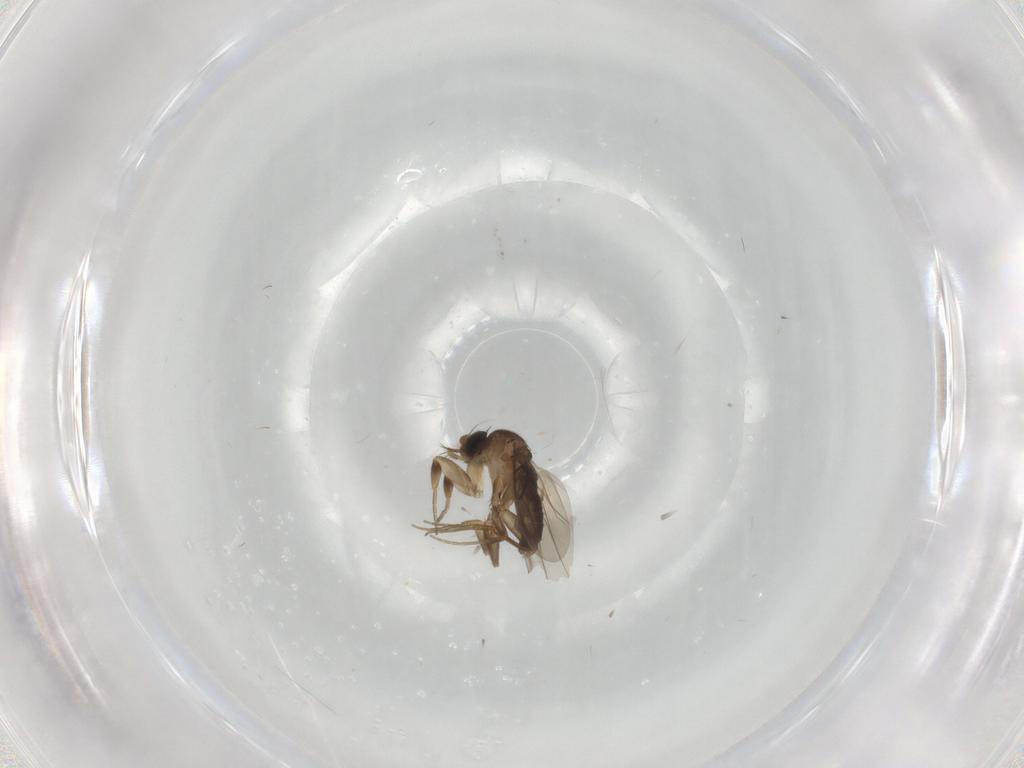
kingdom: Animalia
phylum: Arthropoda
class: Insecta
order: Diptera
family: Phoridae
